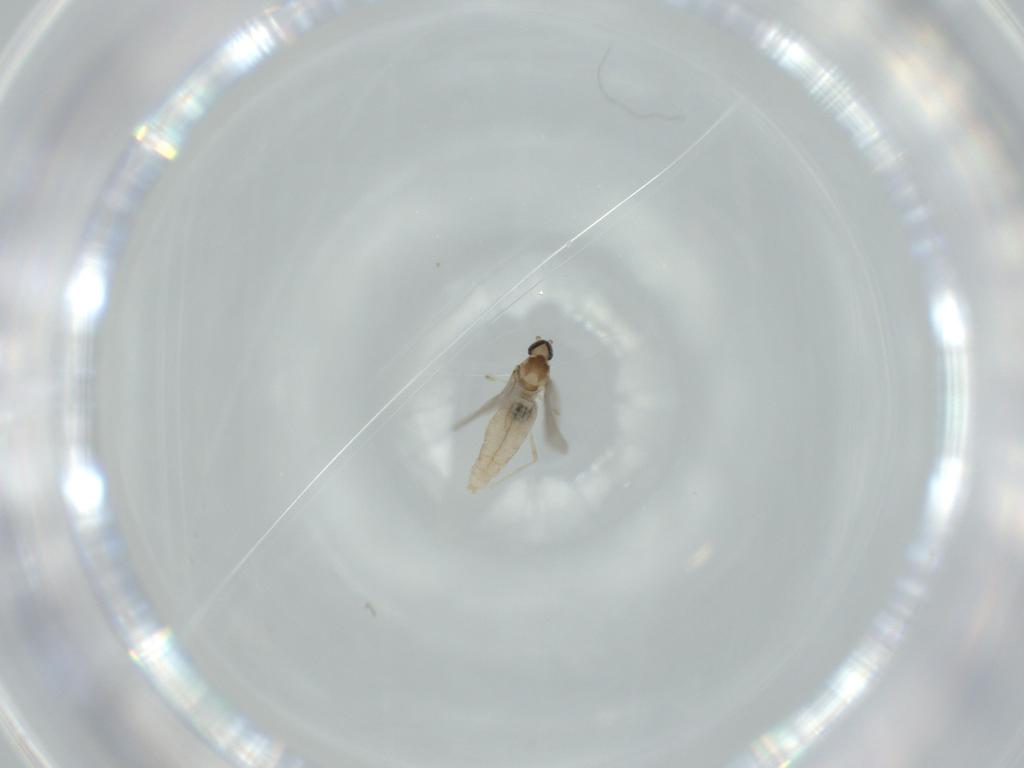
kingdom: Animalia
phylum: Arthropoda
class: Insecta
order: Diptera
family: Cecidomyiidae
